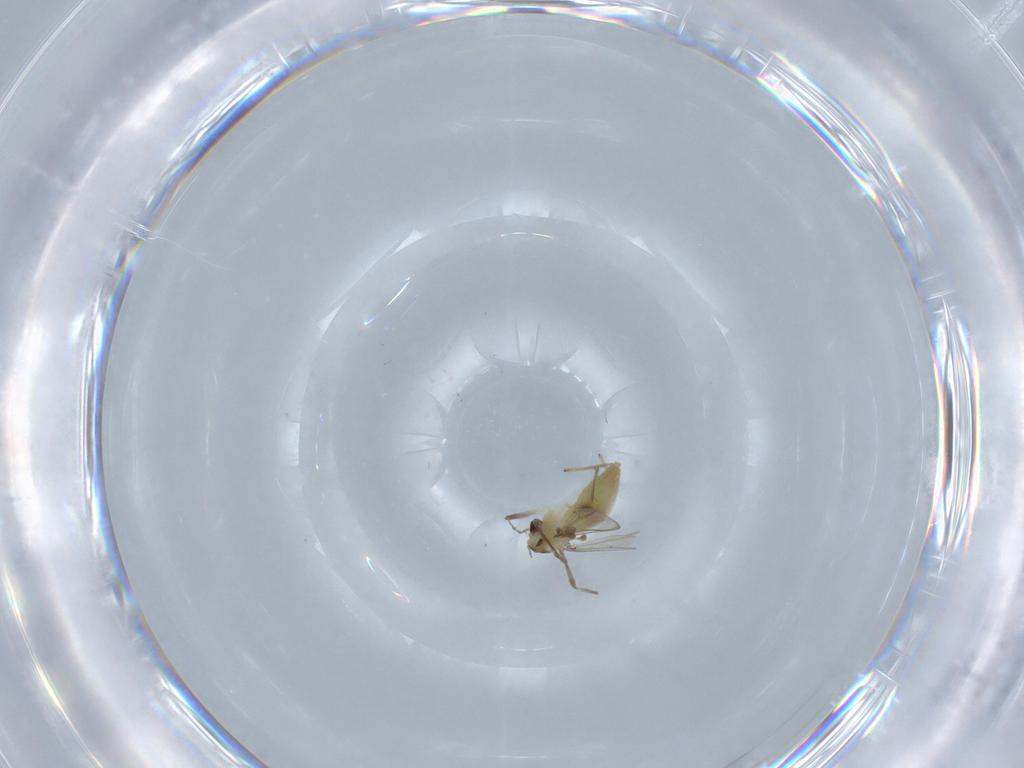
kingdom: Animalia
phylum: Arthropoda
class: Insecta
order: Diptera
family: Chironomidae
